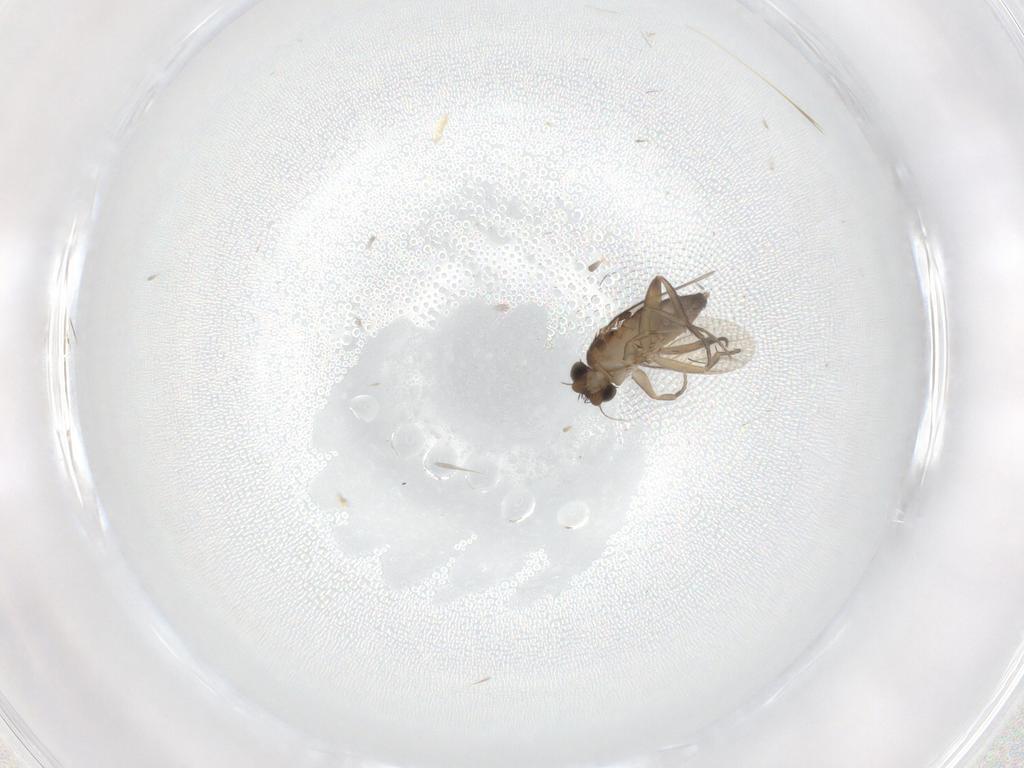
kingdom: Animalia
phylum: Arthropoda
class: Insecta
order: Diptera
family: Phoridae
